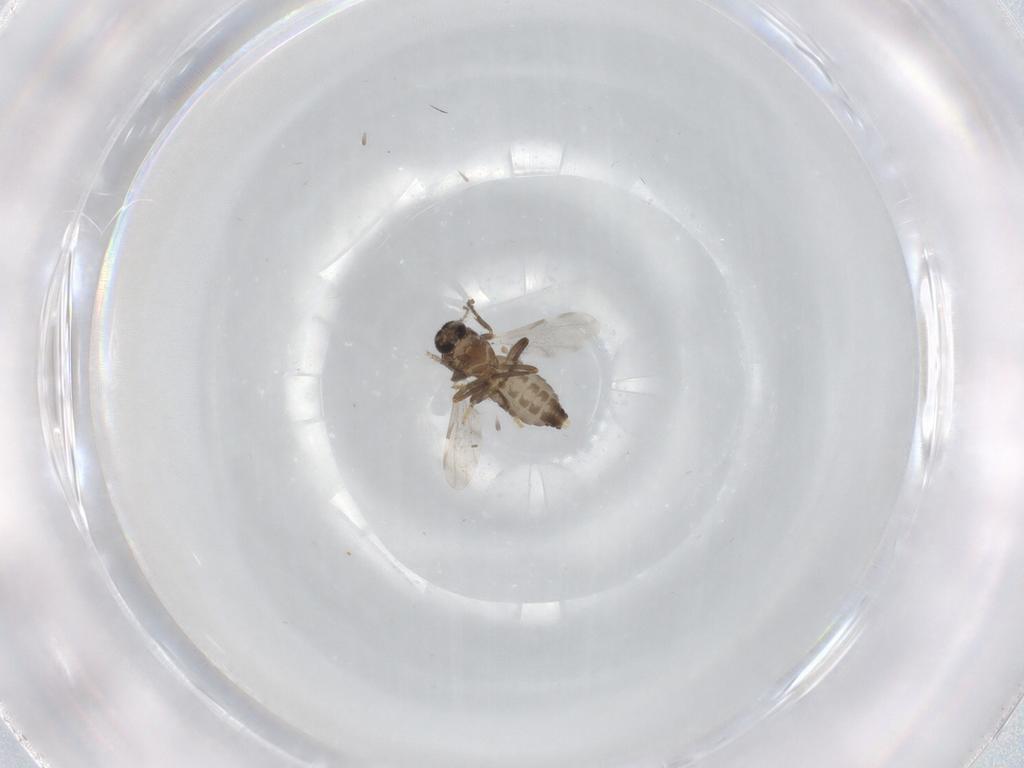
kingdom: Animalia
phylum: Arthropoda
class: Insecta
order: Diptera
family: Ceratopogonidae
